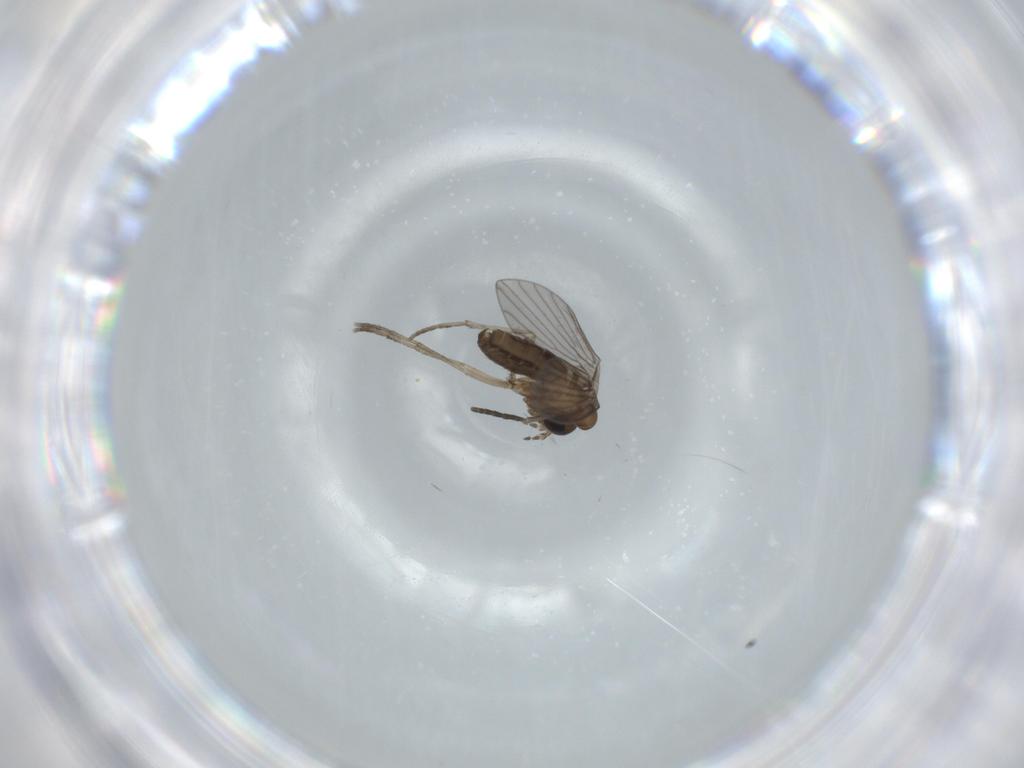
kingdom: Animalia
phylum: Arthropoda
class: Insecta
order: Diptera
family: Psychodidae
